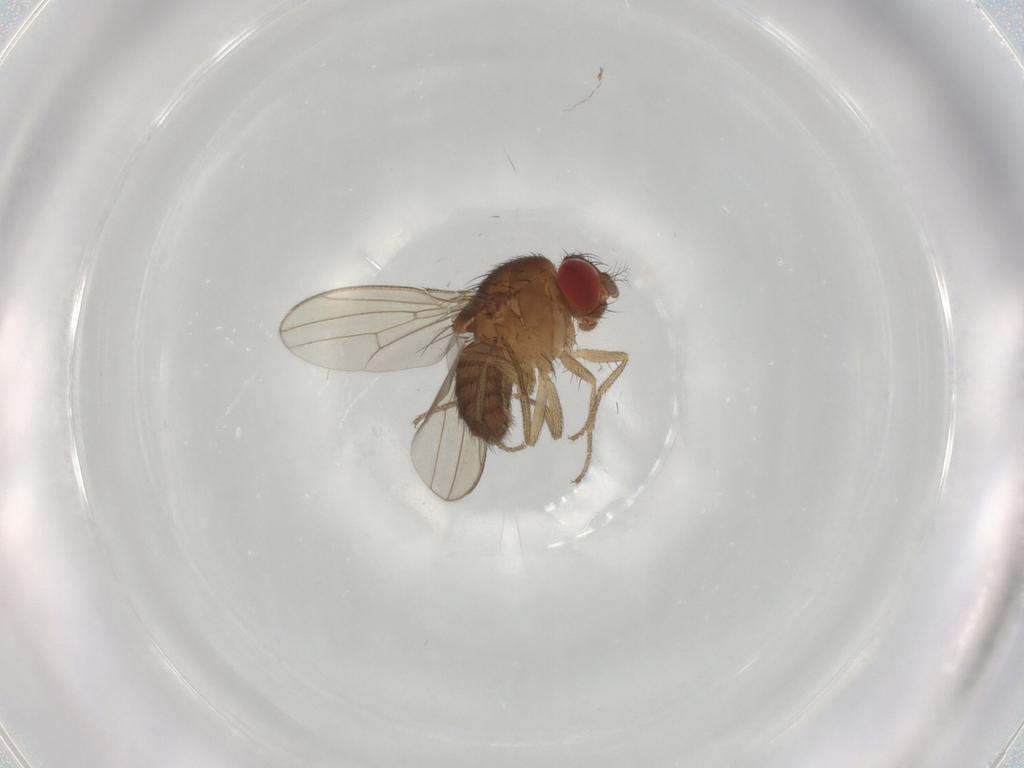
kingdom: Animalia
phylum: Arthropoda
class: Insecta
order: Diptera
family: Drosophilidae
